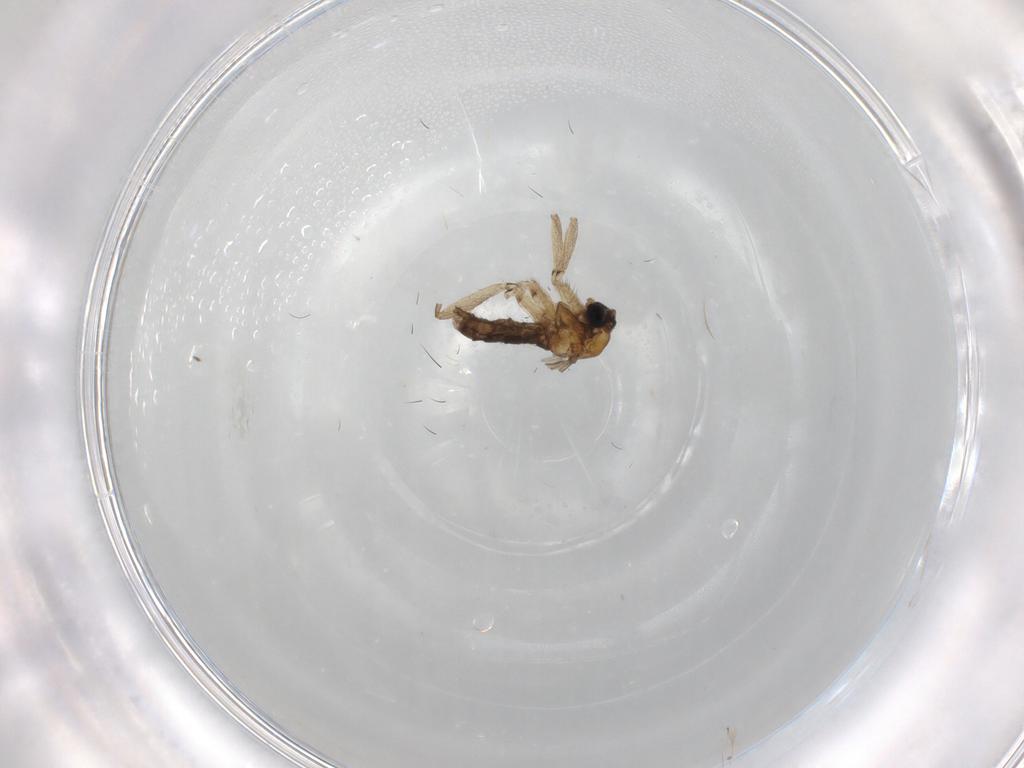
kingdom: Animalia
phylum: Arthropoda
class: Insecta
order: Diptera
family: Sciaridae
